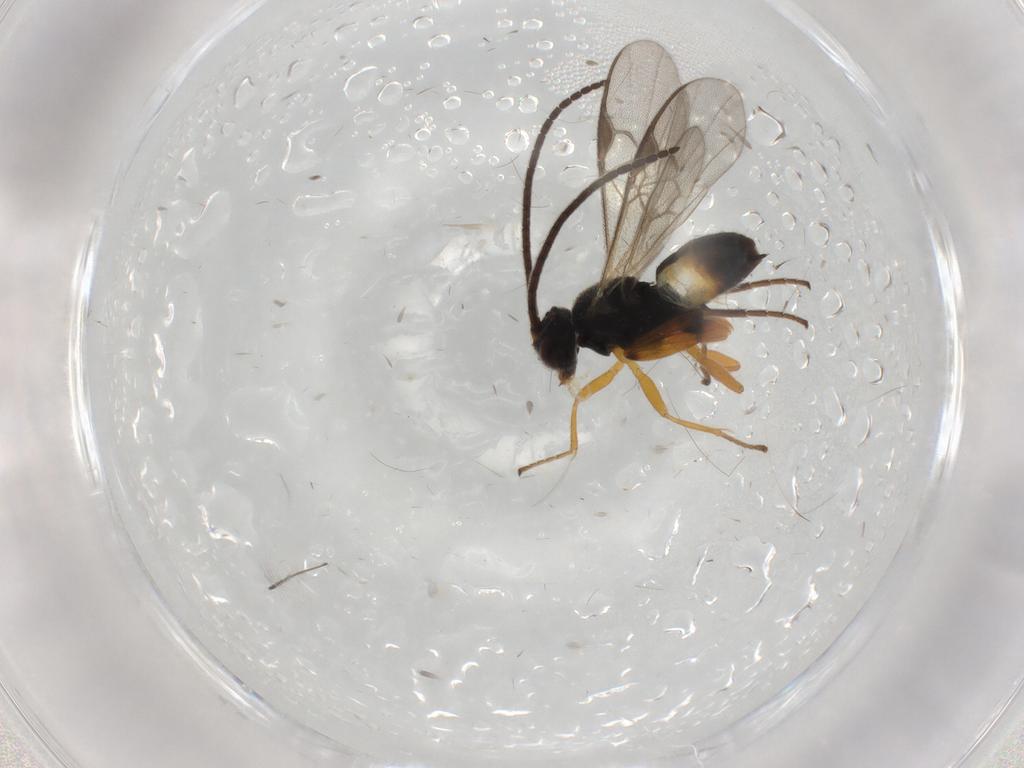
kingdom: Animalia
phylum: Arthropoda
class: Insecta
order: Hymenoptera
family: Braconidae
